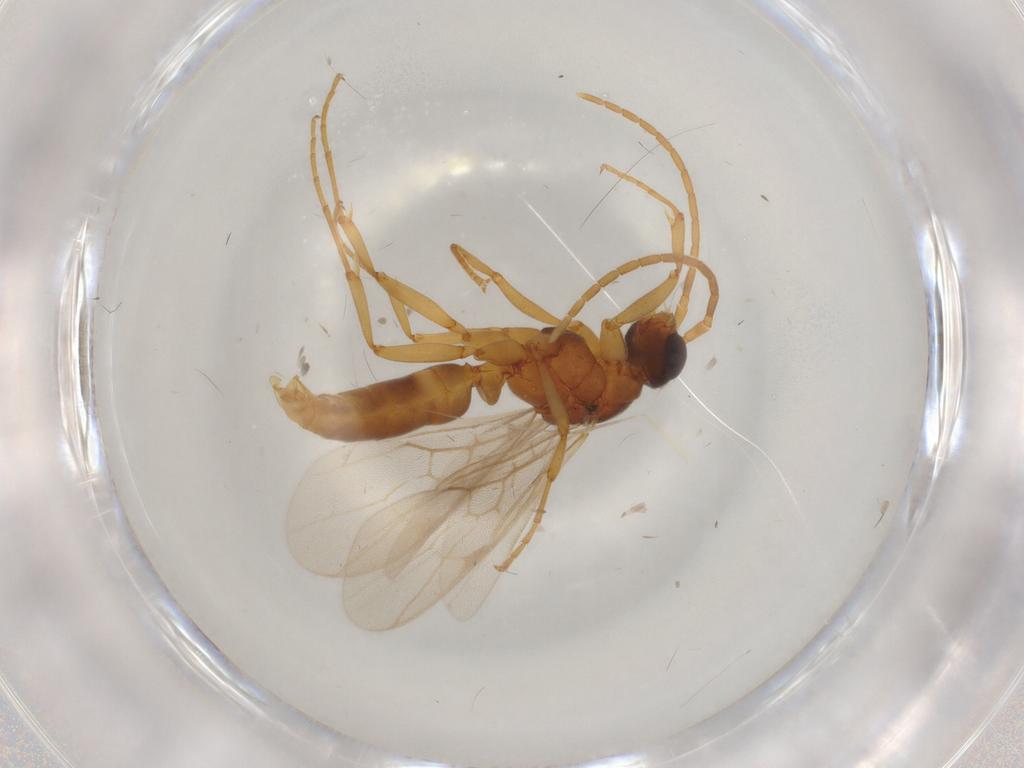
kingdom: Animalia
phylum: Arthropoda
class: Insecta
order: Hymenoptera
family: Formicidae
